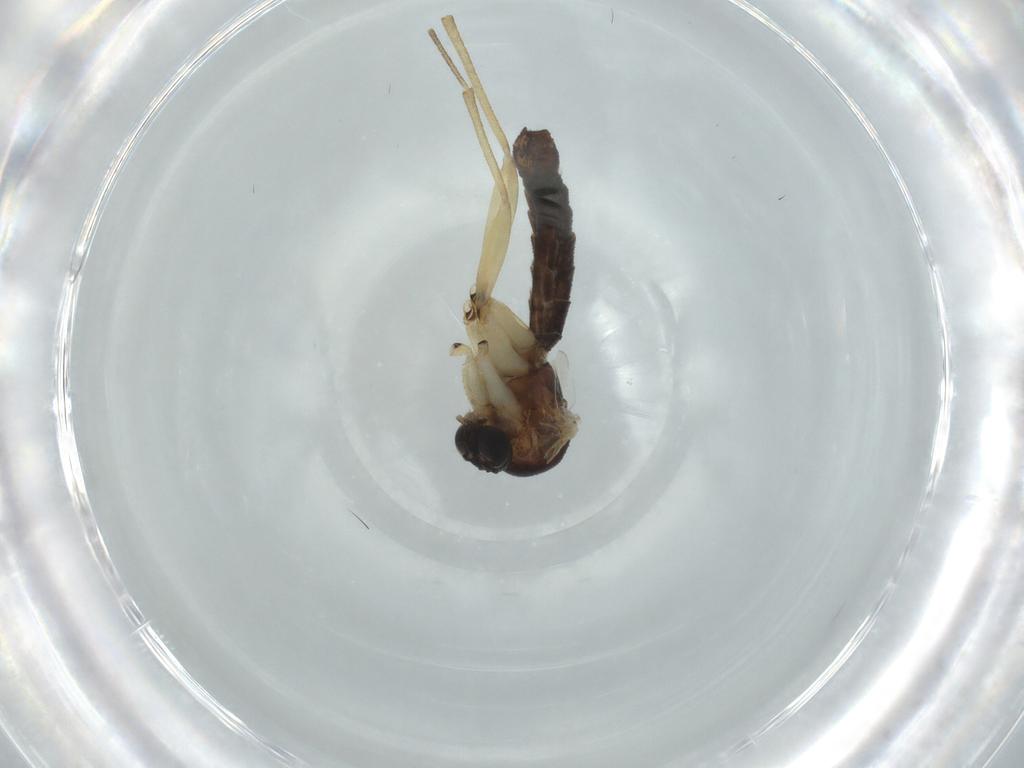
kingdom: Animalia
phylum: Arthropoda
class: Insecta
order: Diptera
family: Mycetophilidae
